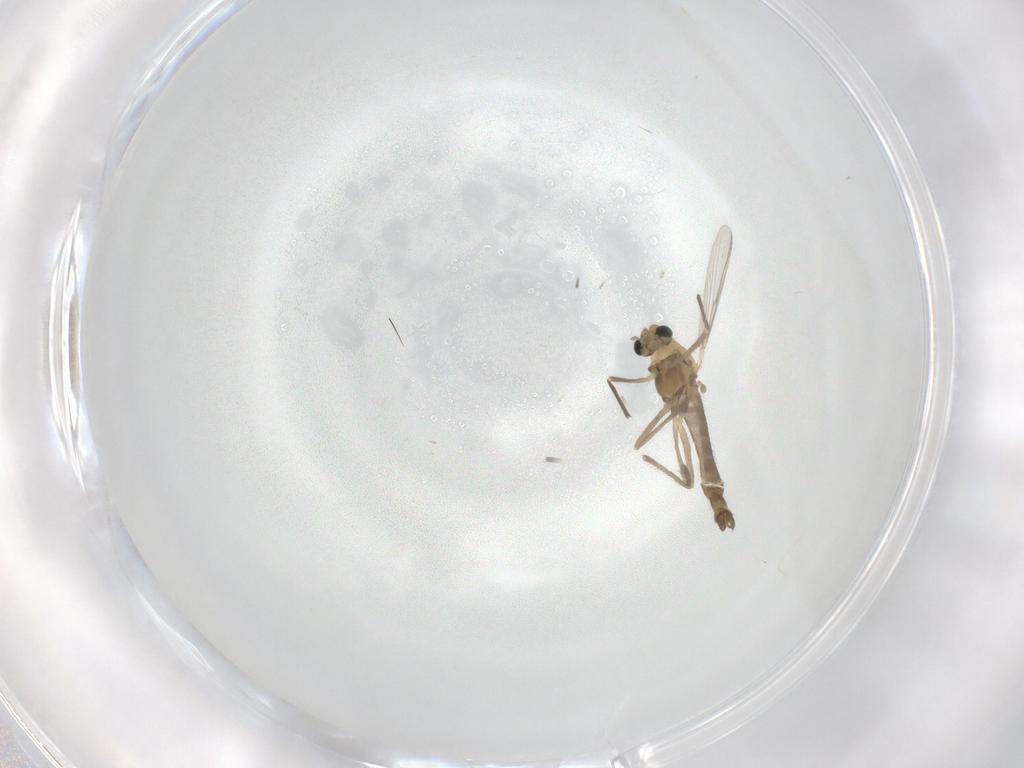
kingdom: Animalia
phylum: Arthropoda
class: Insecta
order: Diptera
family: Chironomidae
